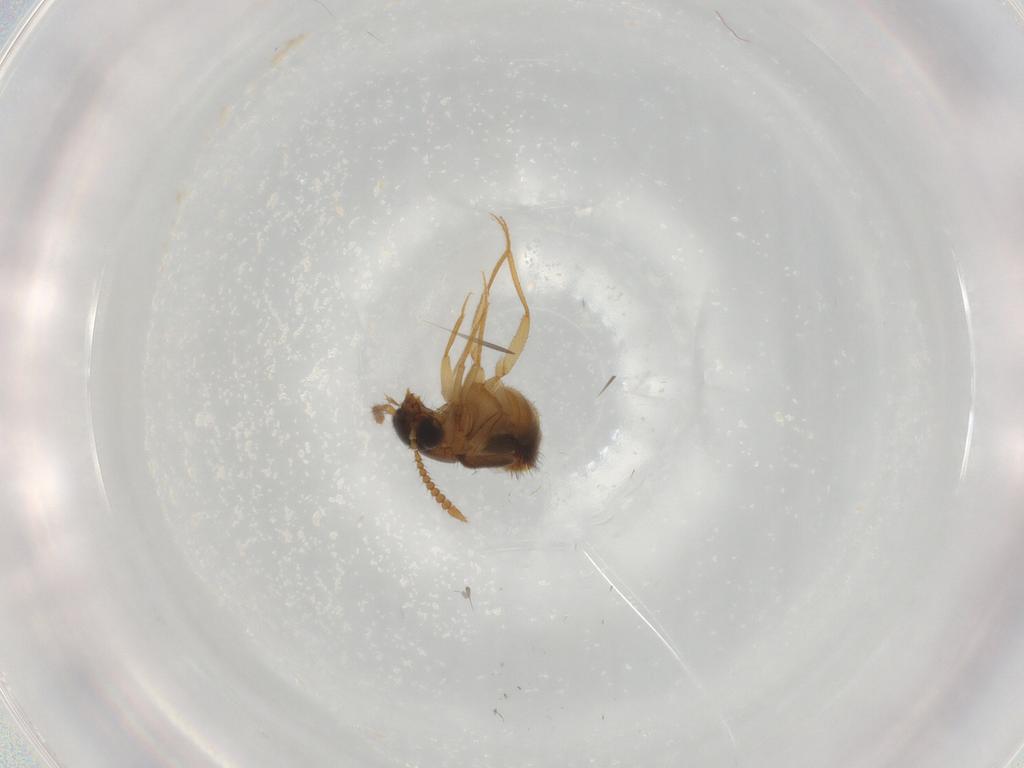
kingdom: Animalia
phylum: Arthropoda
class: Insecta
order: Coleoptera
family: Staphylinidae
